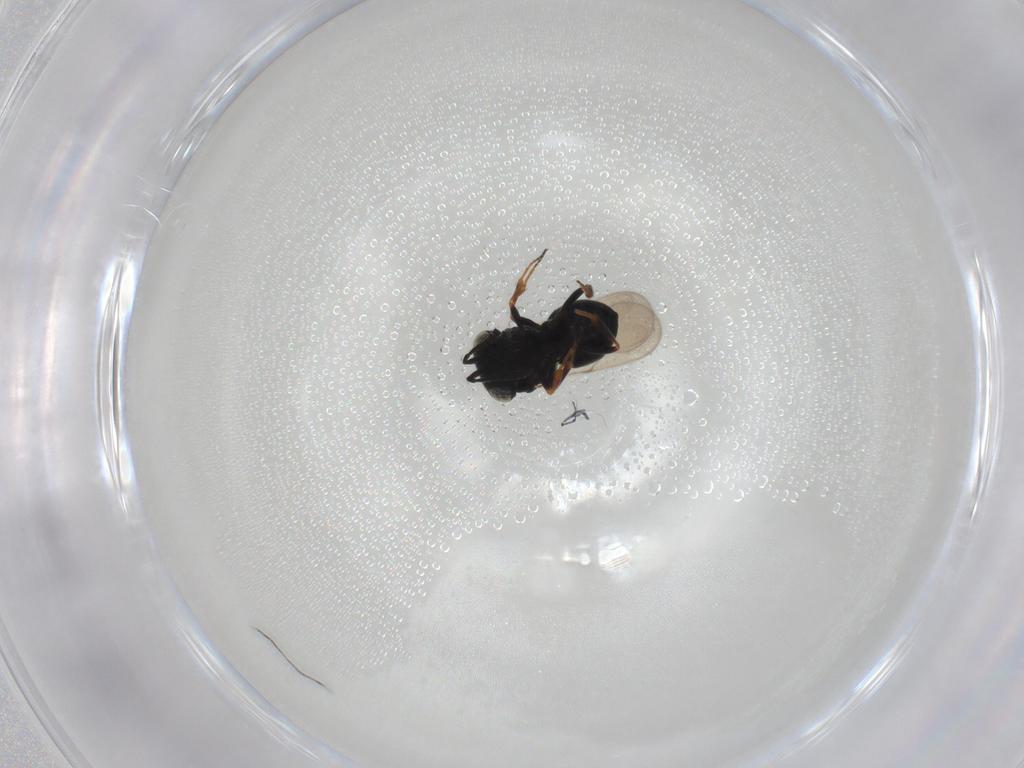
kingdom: Animalia
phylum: Arthropoda
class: Insecta
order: Hymenoptera
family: Scelionidae
